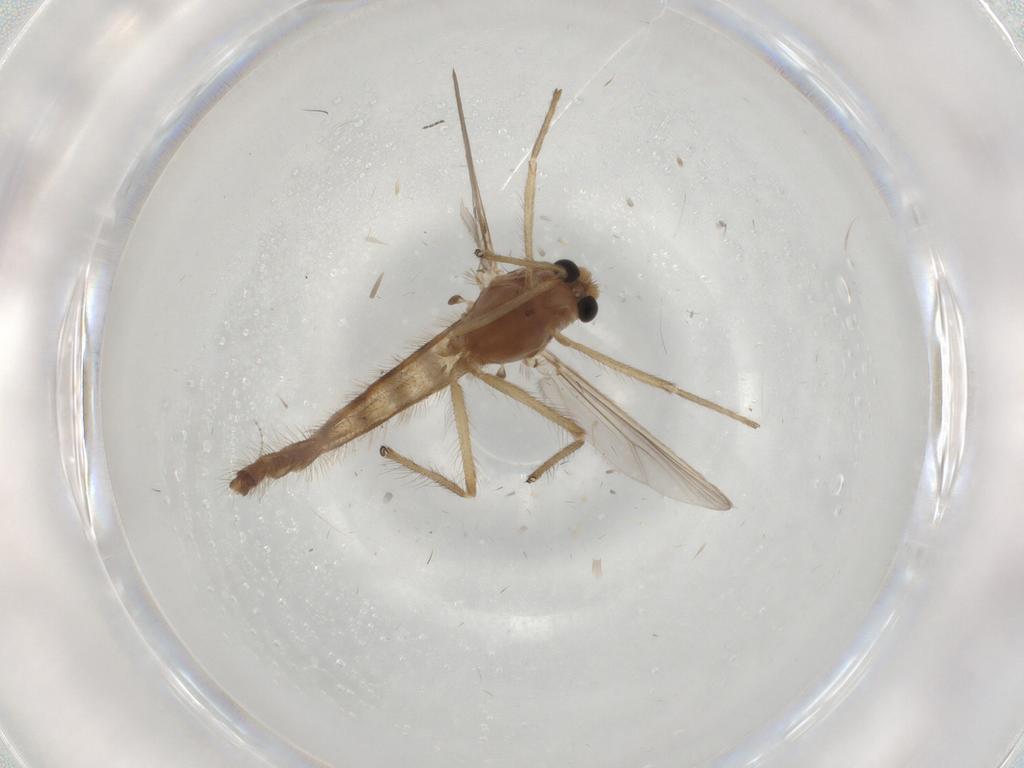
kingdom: Animalia
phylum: Arthropoda
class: Insecta
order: Diptera
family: Chironomidae
